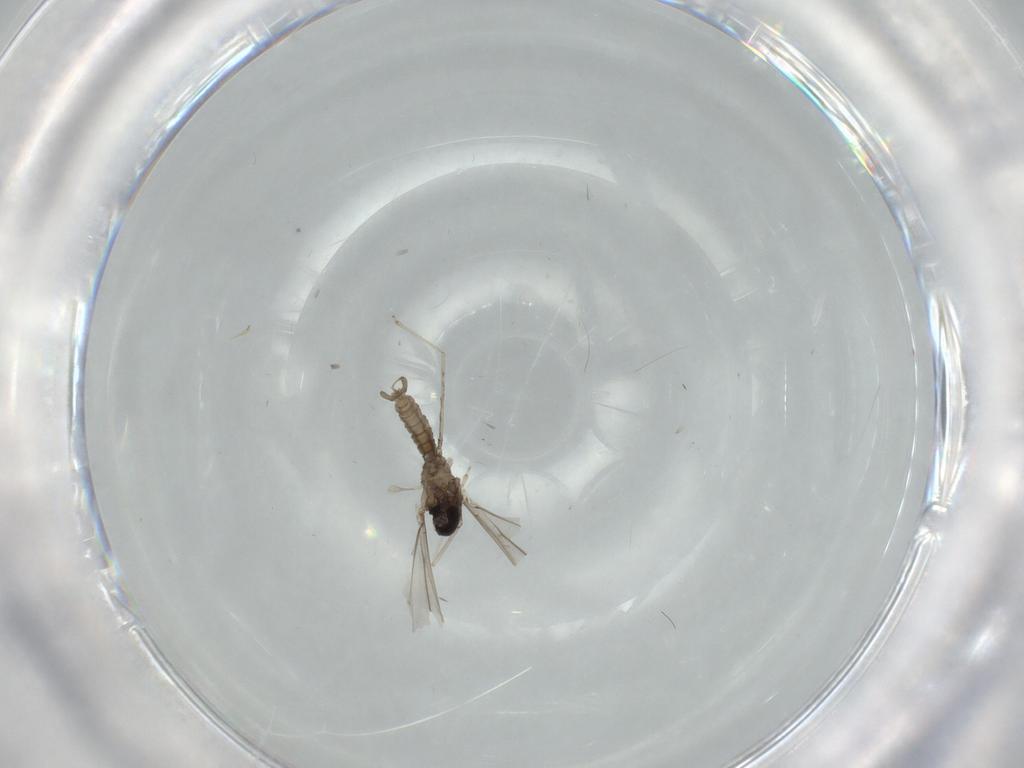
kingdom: Animalia
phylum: Arthropoda
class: Insecta
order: Diptera
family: Cecidomyiidae
